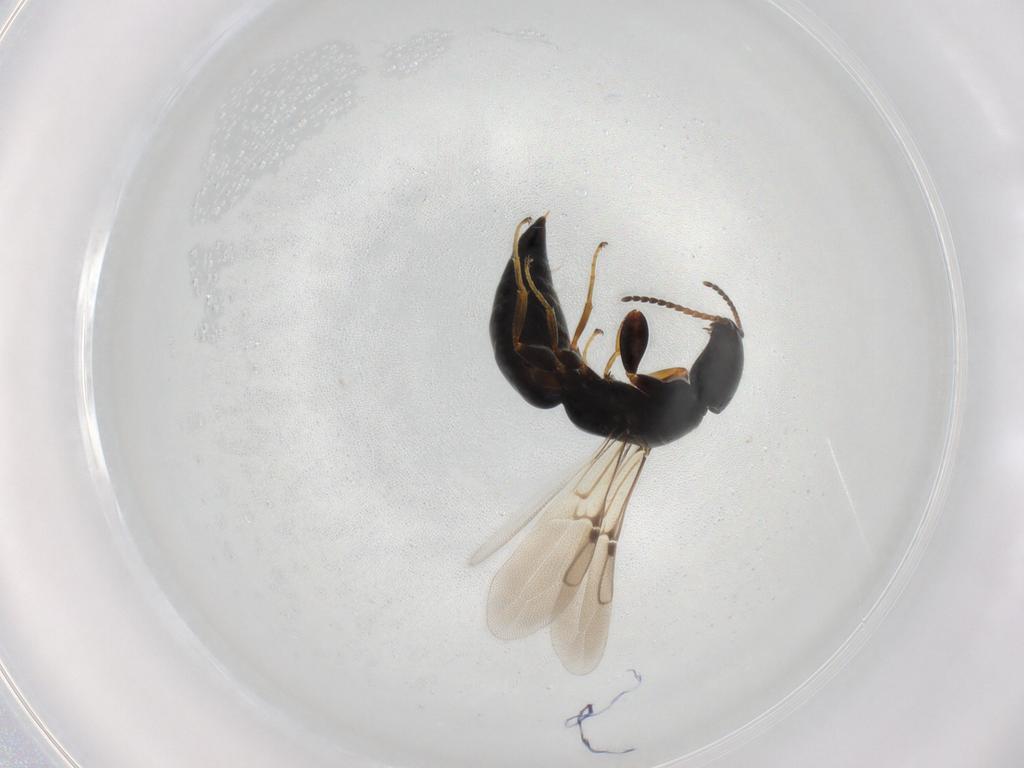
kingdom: Animalia
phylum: Arthropoda
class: Insecta
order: Hymenoptera
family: Bethylidae
